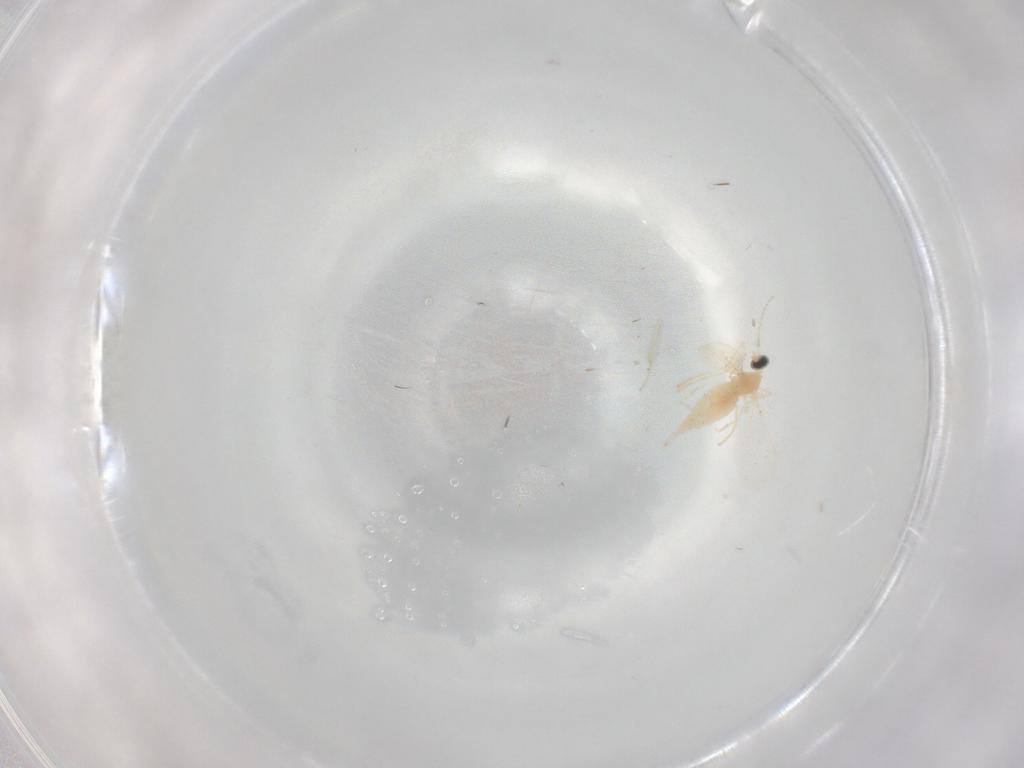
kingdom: Animalia
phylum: Arthropoda
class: Insecta
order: Diptera
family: Cecidomyiidae
